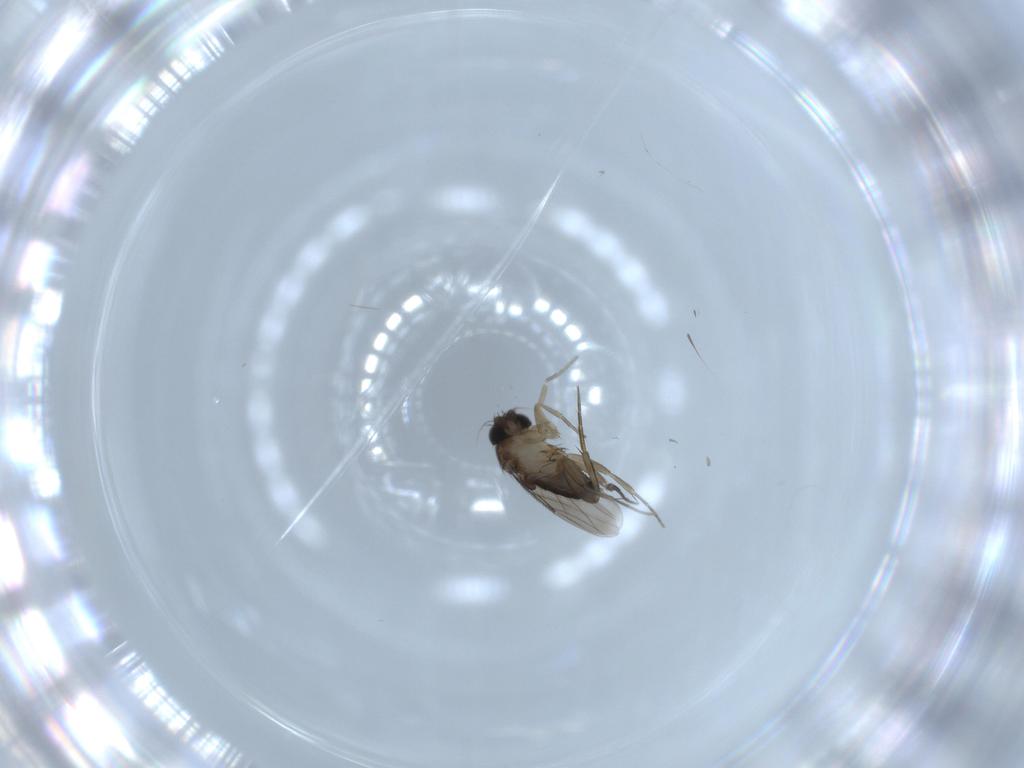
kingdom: Animalia
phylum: Arthropoda
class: Insecta
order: Diptera
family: Phoridae
